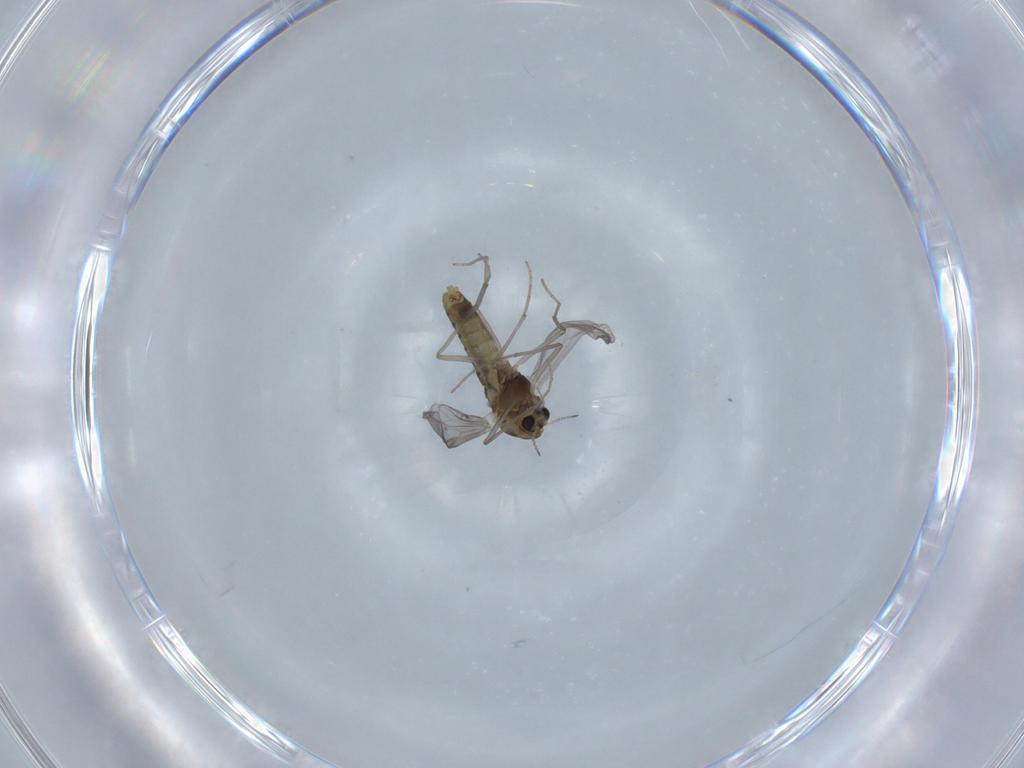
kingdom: Animalia
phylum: Arthropoda
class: Insecta
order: Diptera
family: Chironomidae
